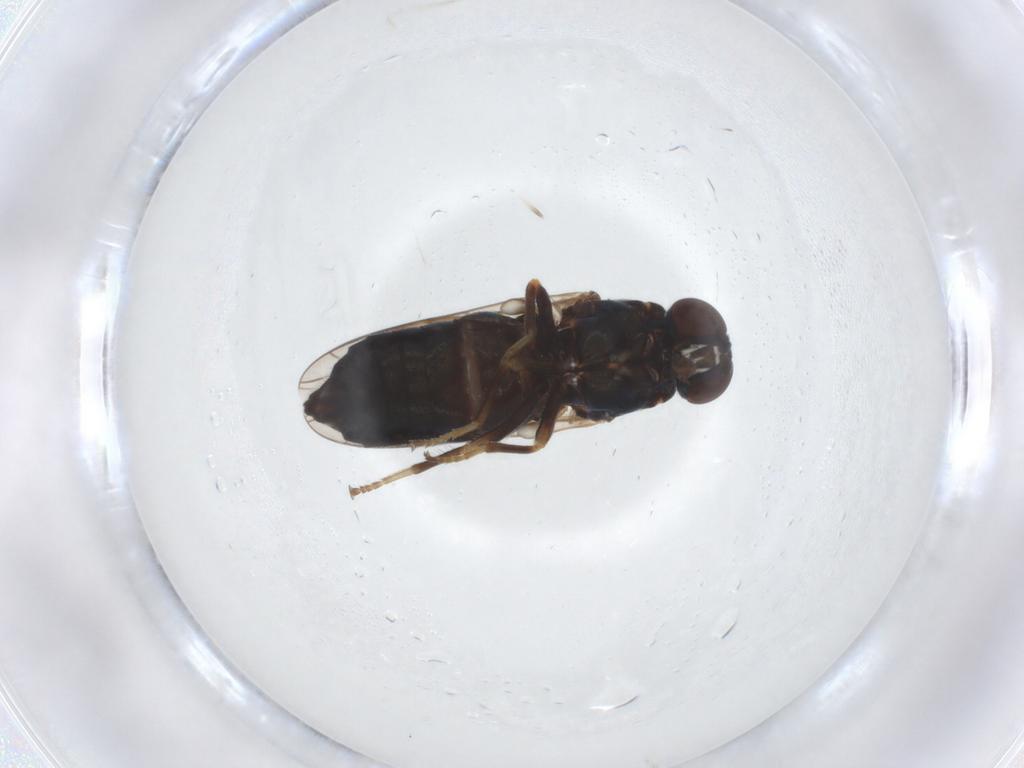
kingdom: Animalia
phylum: Arthropoda
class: Insecta
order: Diptera
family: Scenopinidae
